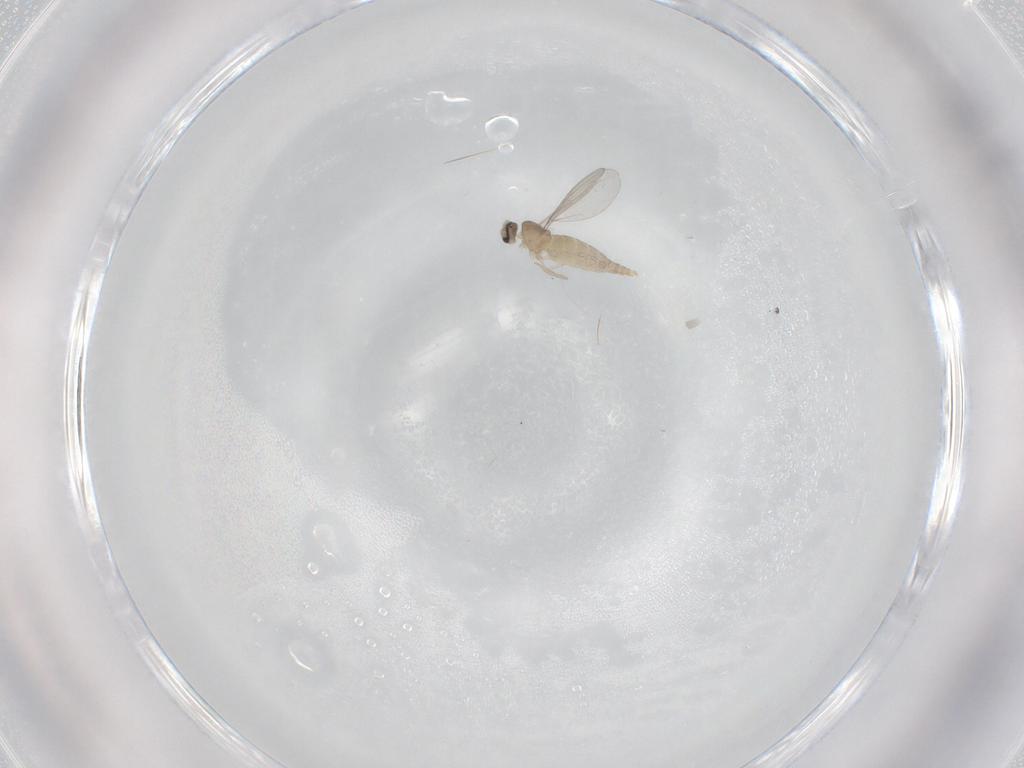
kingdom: Animalia
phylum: Arthropoda
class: Insecta
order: Diptera
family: Cecidomyiidae
